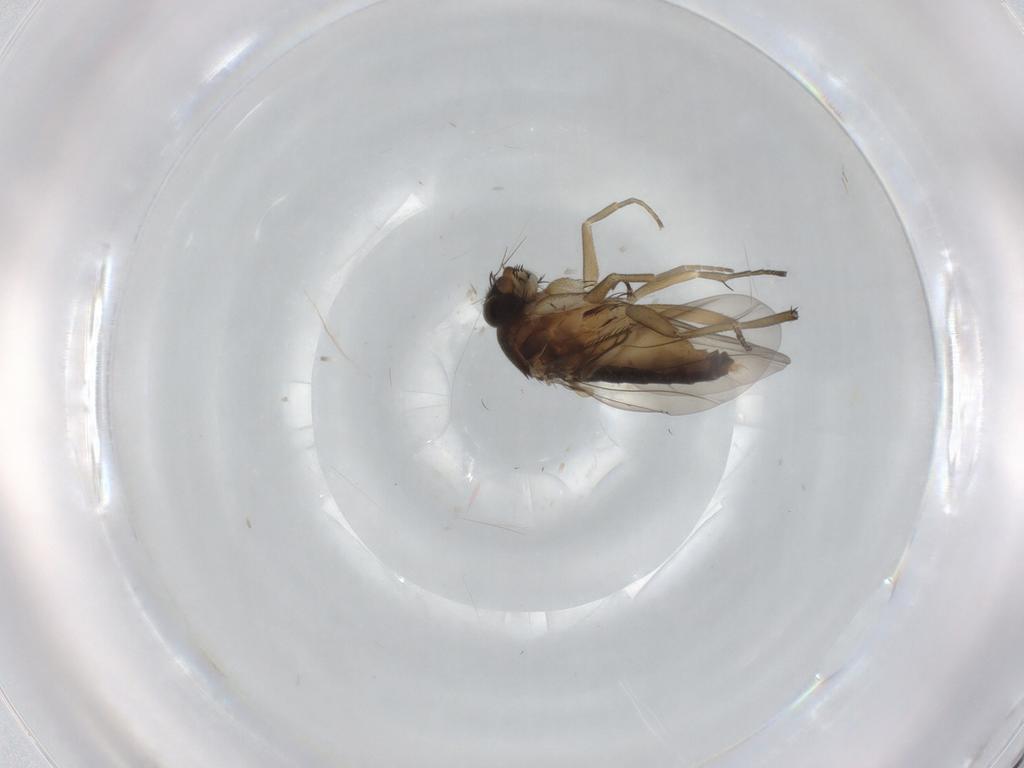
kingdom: Animalia
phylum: Arthropoda
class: Insecta
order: Diptera
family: Phoridae
